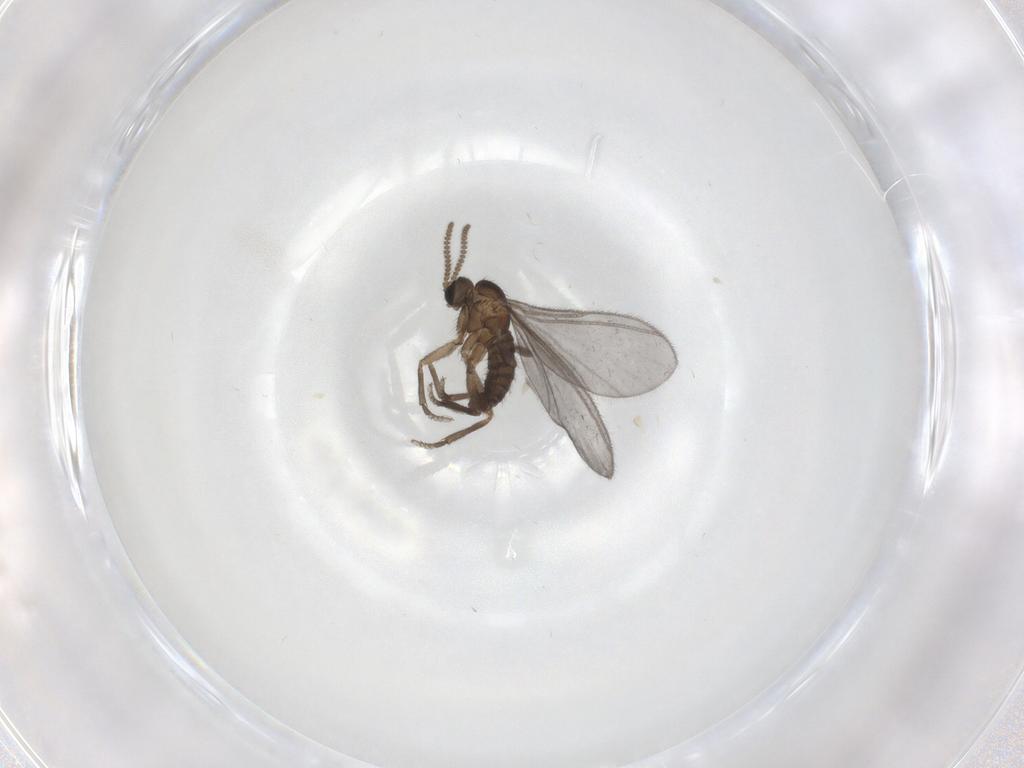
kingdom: Animalia
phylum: Arthropoda
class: Insecta
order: Diptera
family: Sciaridae
